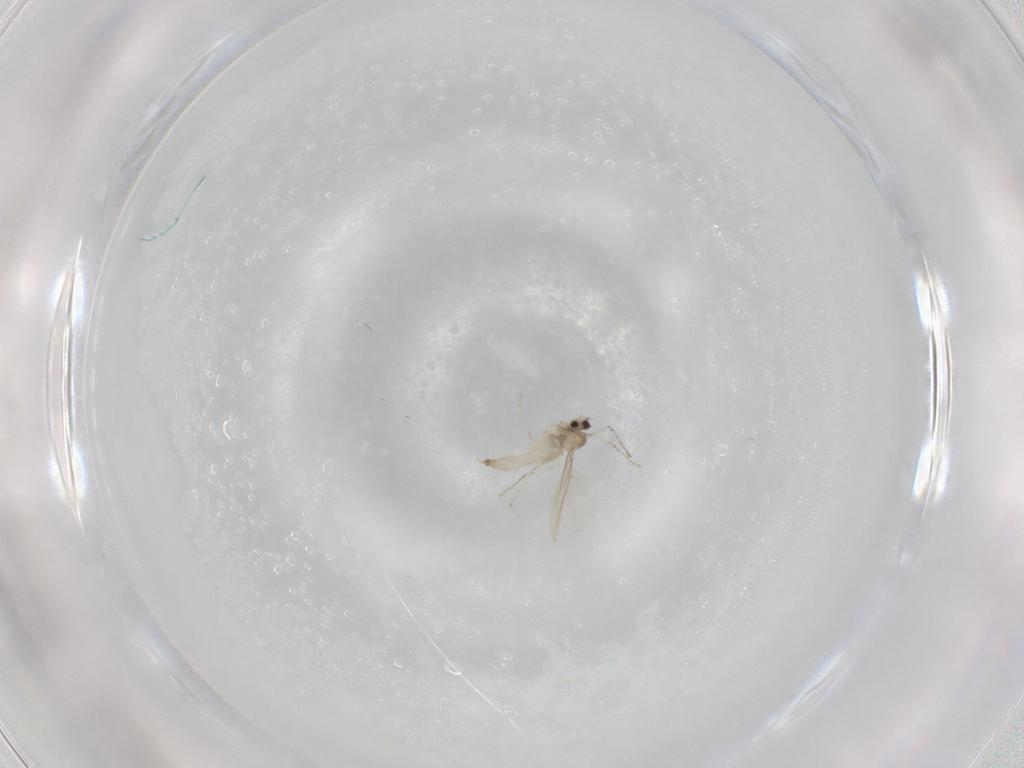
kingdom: Animalia
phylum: Arthropoda
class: Insecta
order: Diptera
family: Cecidomyiidae
